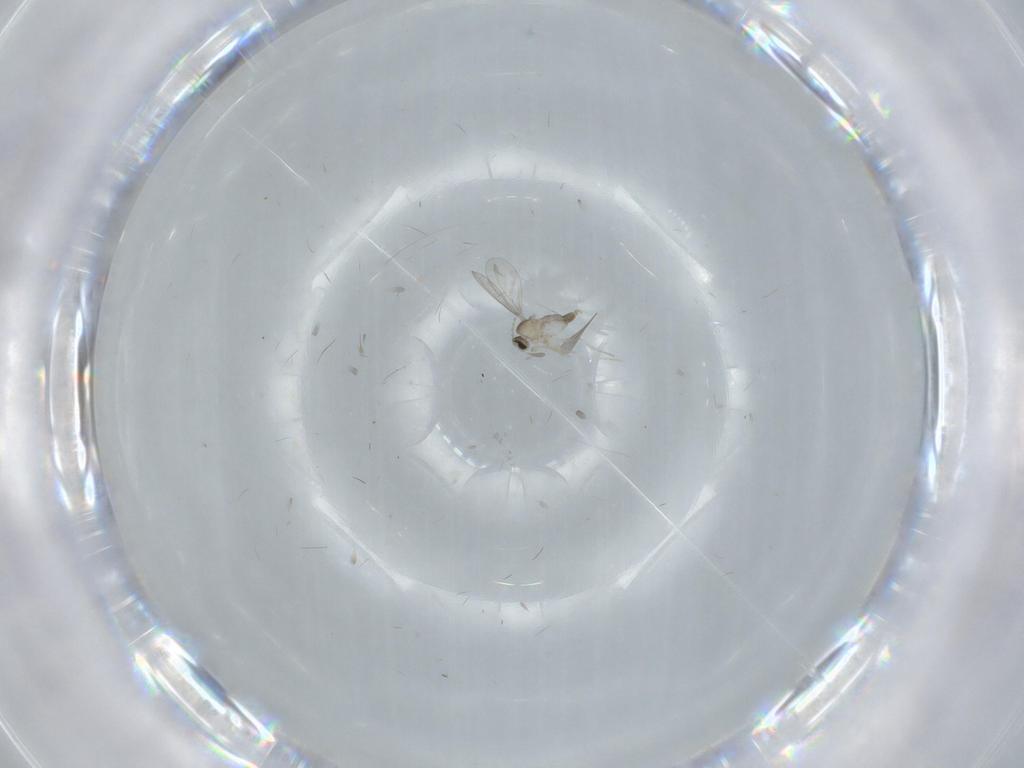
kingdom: Animalia
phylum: Arthropoda
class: Insecta
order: Diptera
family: Cecidomyiidae
